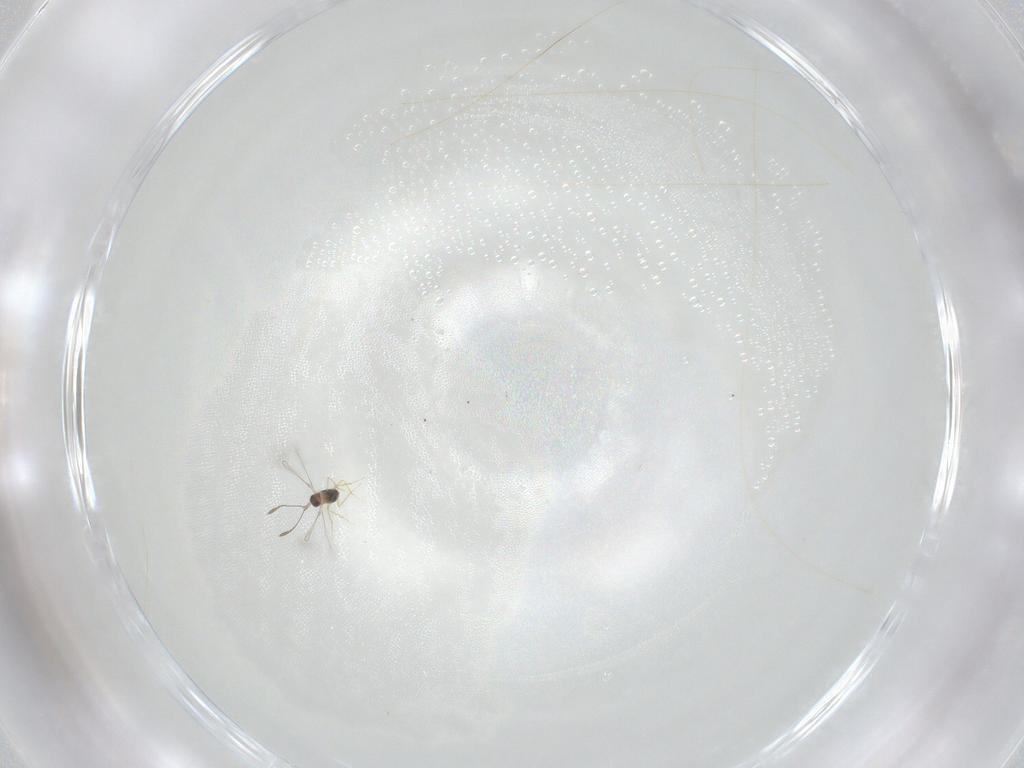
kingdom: Animalia
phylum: Arthropoda
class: Insecta
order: Hymenoptera
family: Mymaridae
